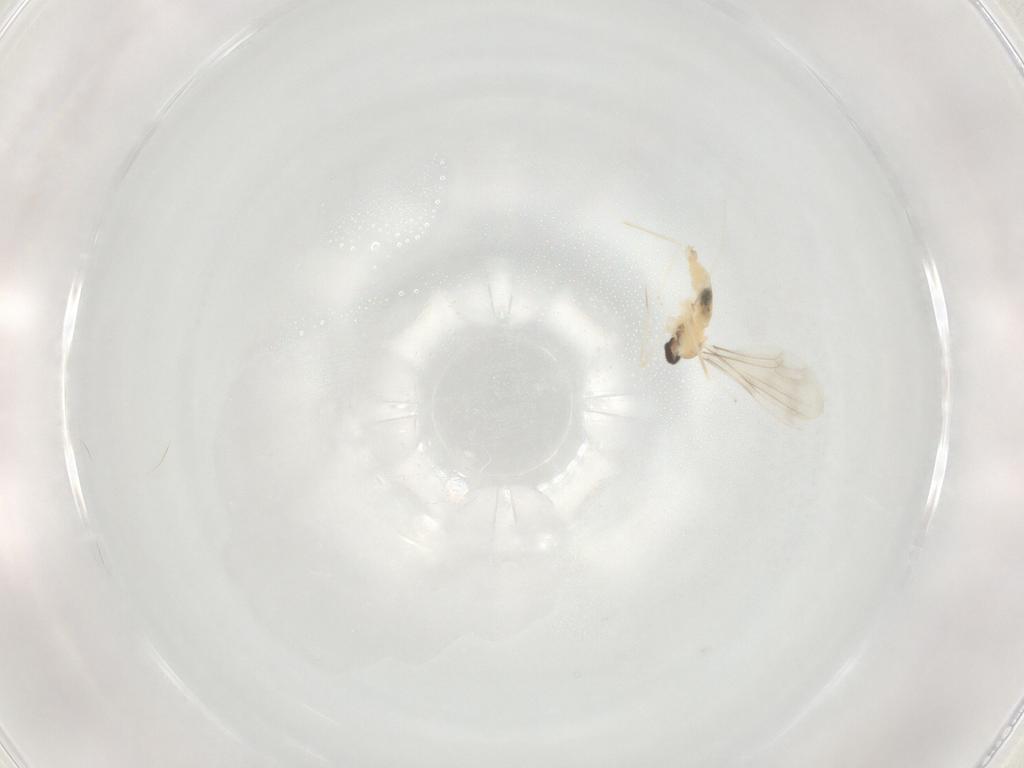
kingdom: Animalia
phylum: Arthropoda
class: Insecta
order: Diptera
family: Cecidomyiidae
